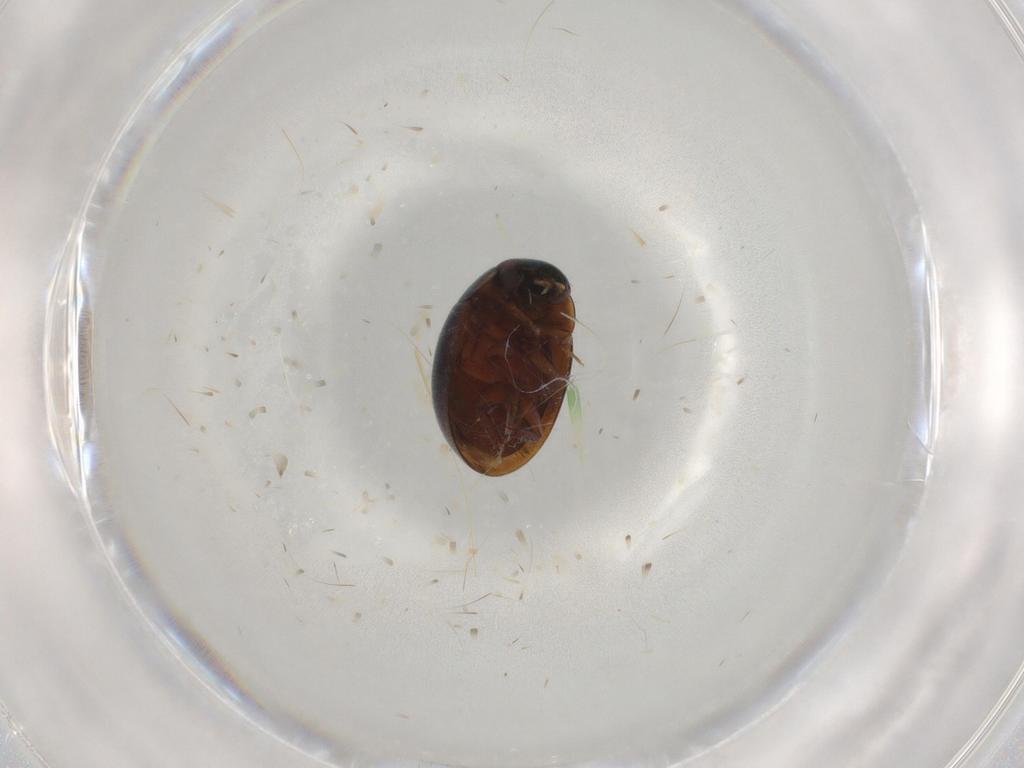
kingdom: Animalia
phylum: Arthropoda
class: Insecta
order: Coleoptera
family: Hydrophilidae
